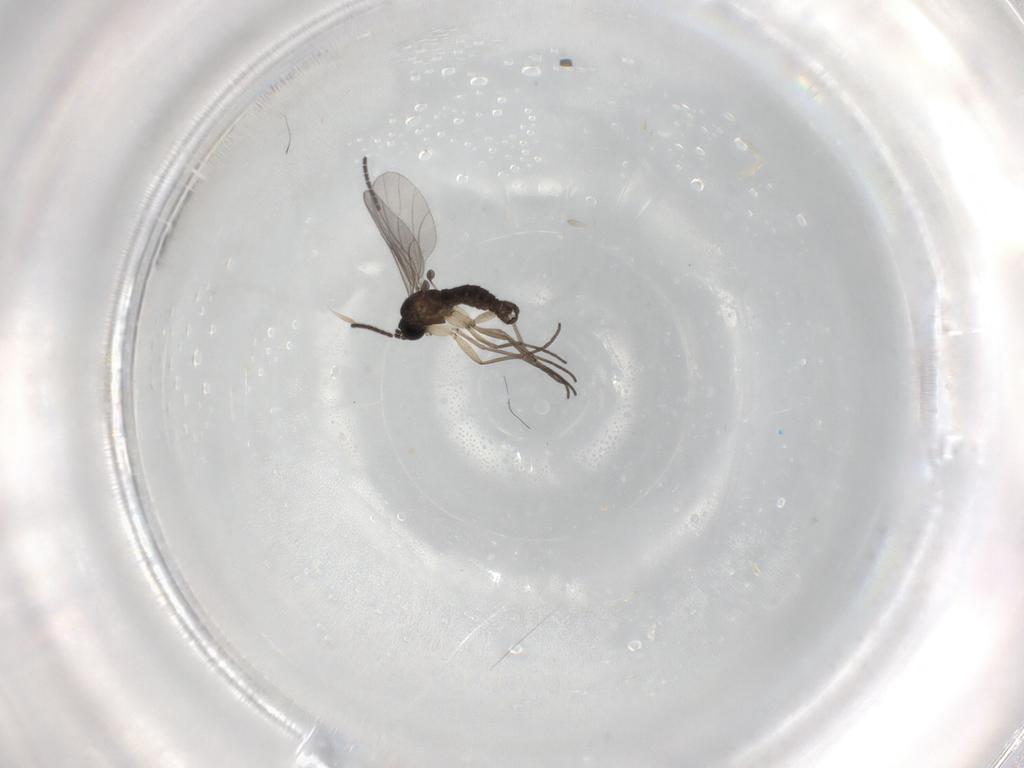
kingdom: Animalia
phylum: Arthropoda
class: Insecta
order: Diptera
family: Sciaridae
